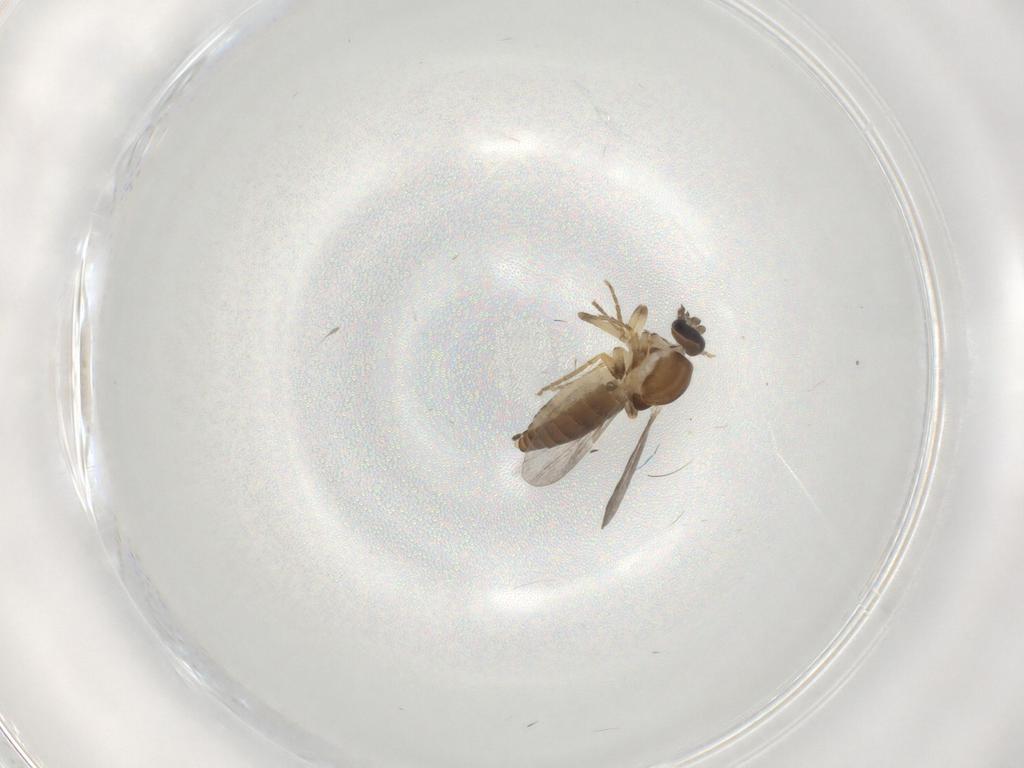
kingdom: Animalia
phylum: Arthropoda
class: Insecta
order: Diptera
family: Ceratopogonidae
